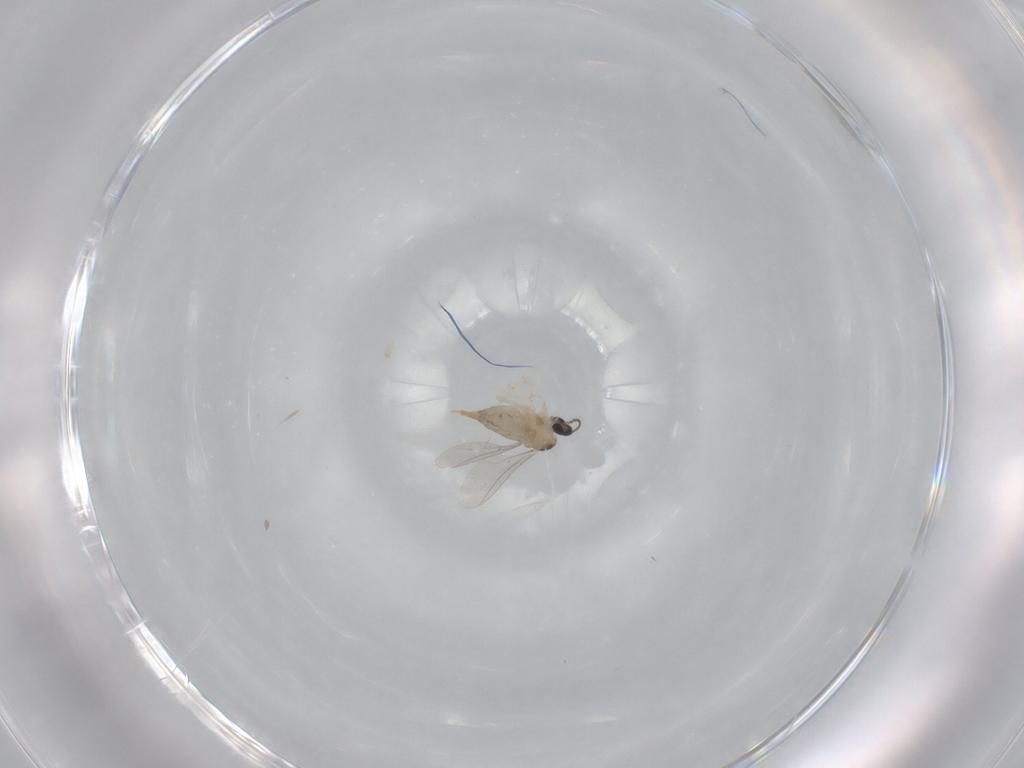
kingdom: Animalia
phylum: Arthropoda
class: Insecta
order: Diptera
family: Cecidomyiidae
